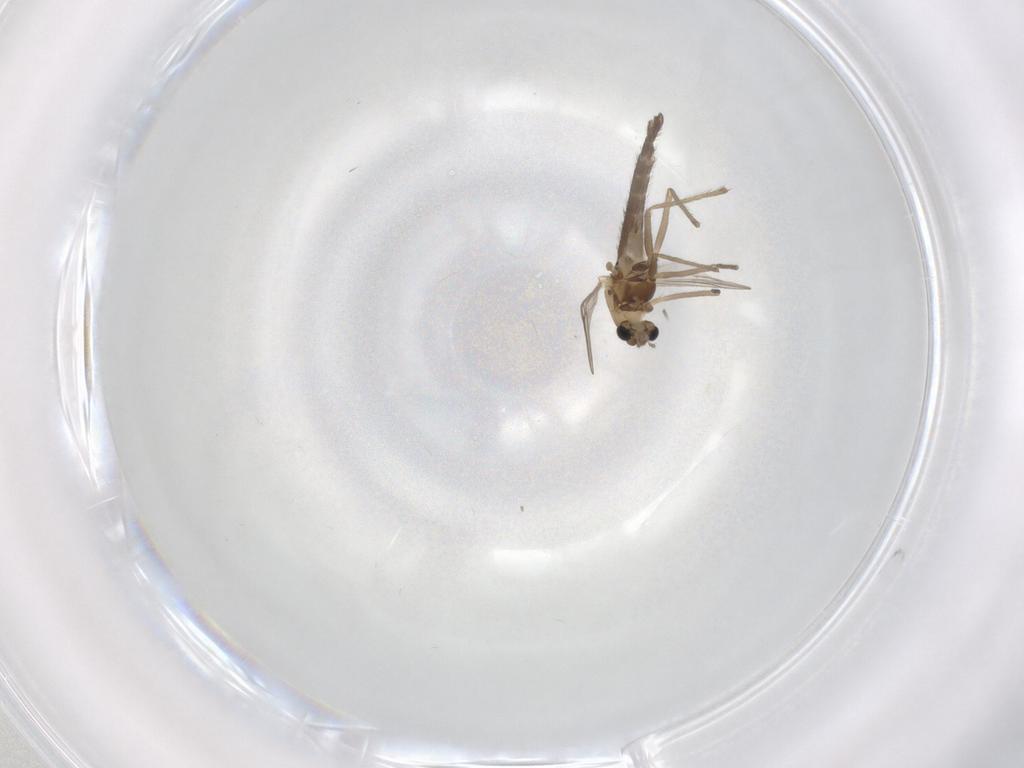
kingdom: Animalia
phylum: Arthropoda
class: Insecta
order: Diptera
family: Chironomidae
